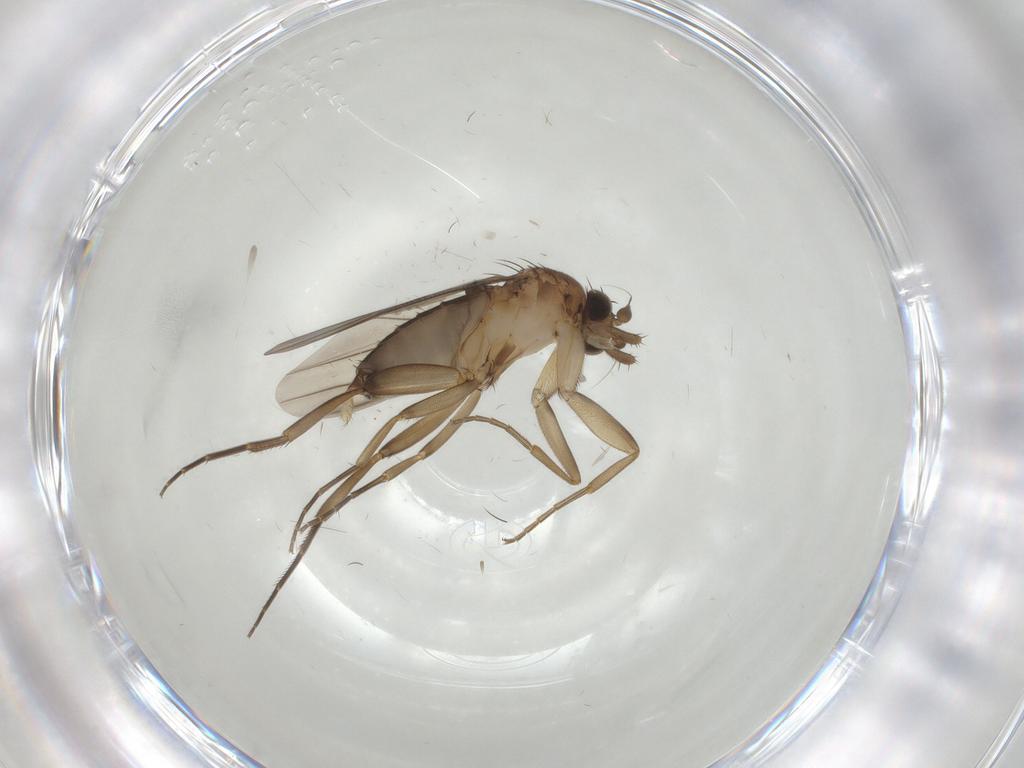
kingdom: Animalia
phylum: Arthropoda
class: Insecta
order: Diptera
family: Phoridae
